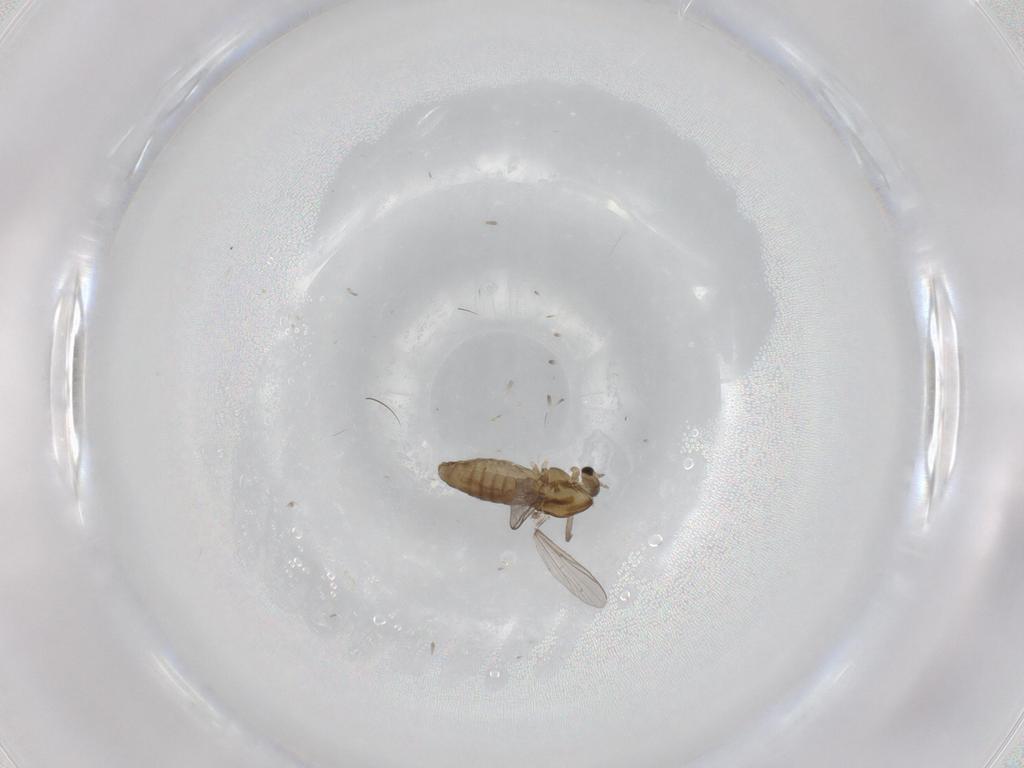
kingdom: Animalia
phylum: Arthropoda
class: Insecta
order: Diptera
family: Chironomidae
